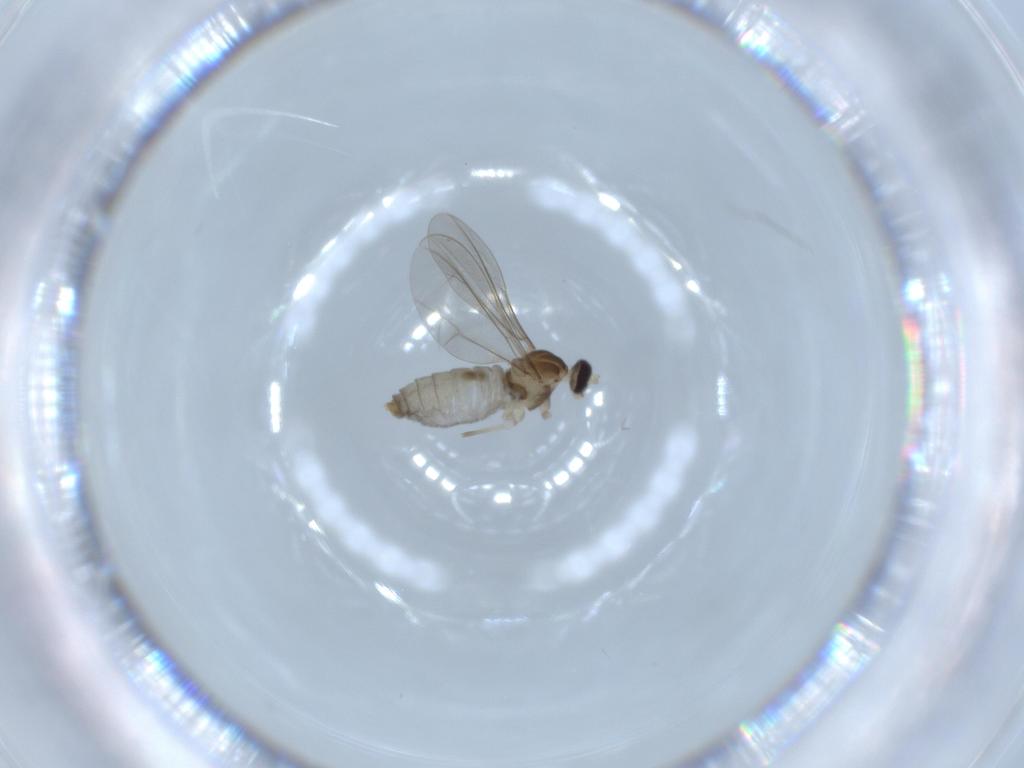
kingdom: Animalia
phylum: Arthropoda
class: Insecta
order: Diptera
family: Cecidomyiidae
